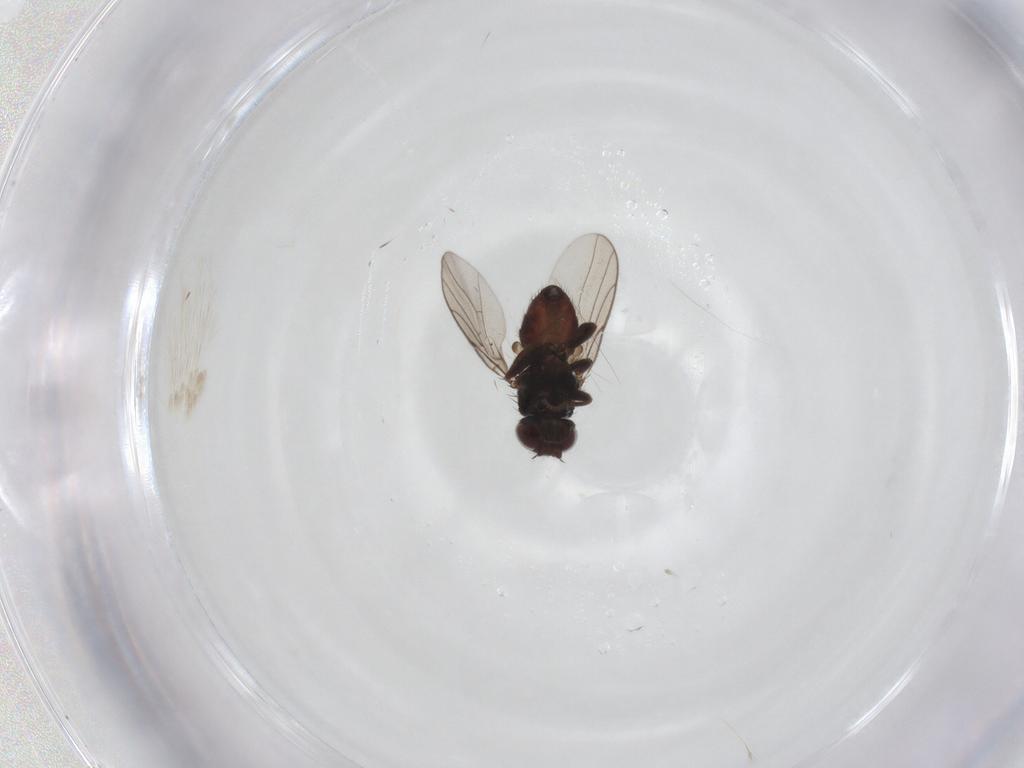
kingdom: Animalia
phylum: Arthropoda
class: Insecta
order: Diptera
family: Chloropidae
